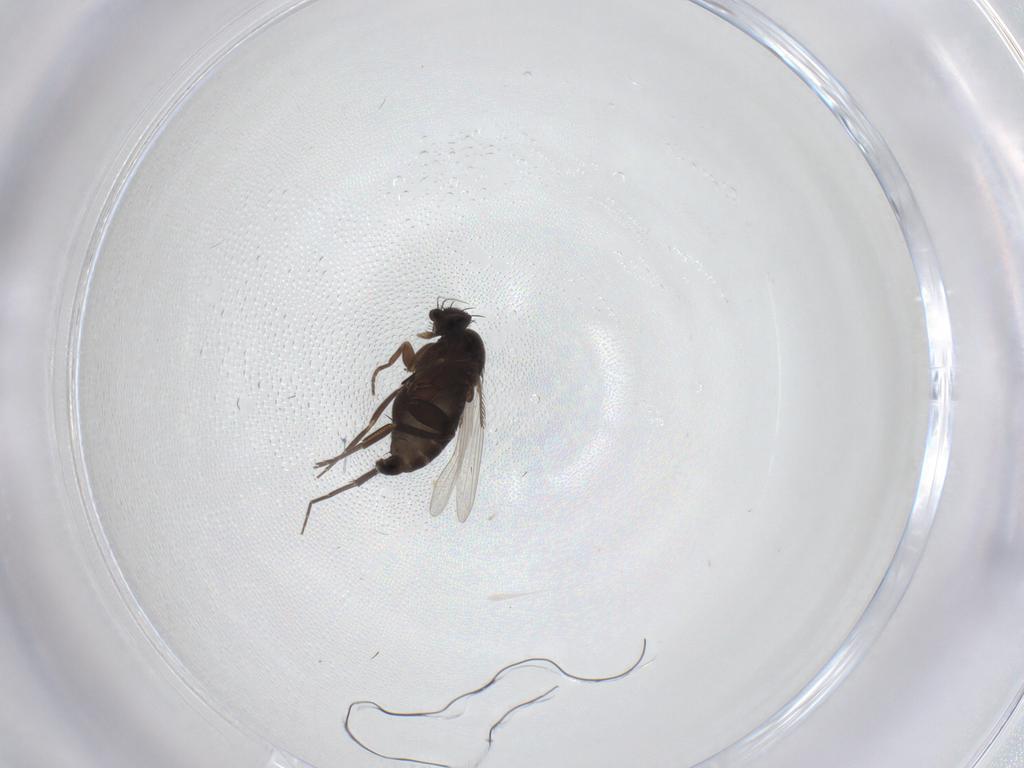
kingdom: Animalia
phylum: Arthropoda
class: Insecta
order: Diptera
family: Phoridae
